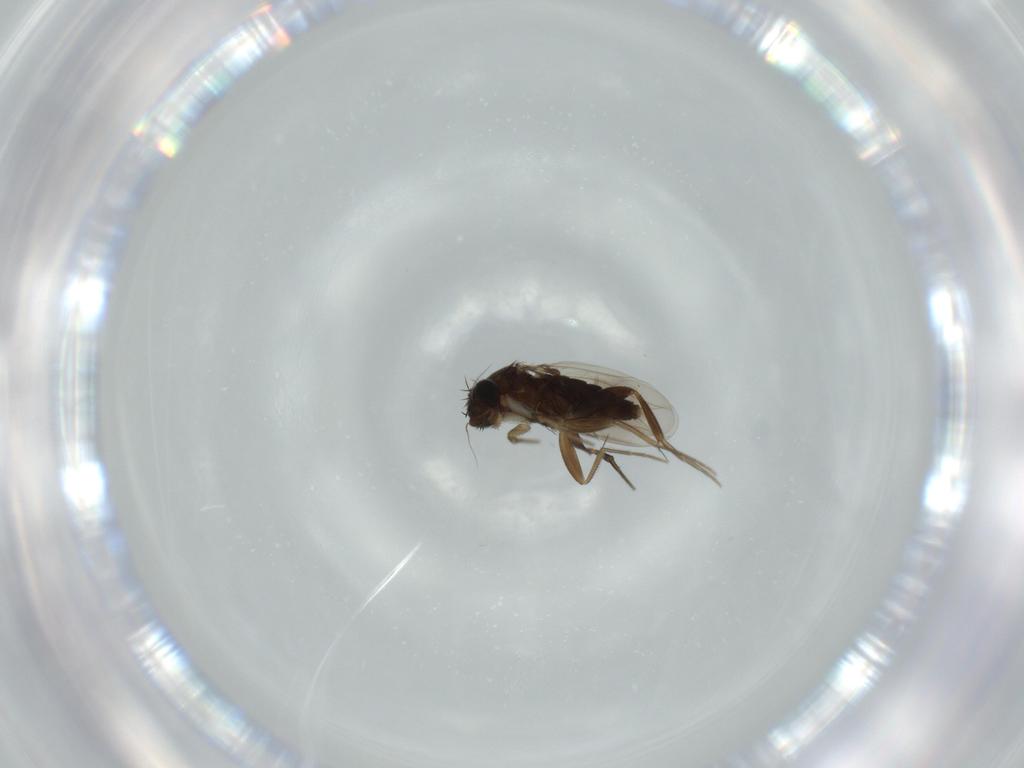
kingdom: Animalia
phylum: Arthropoda
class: Insecta
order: Diptera
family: Phoridae
